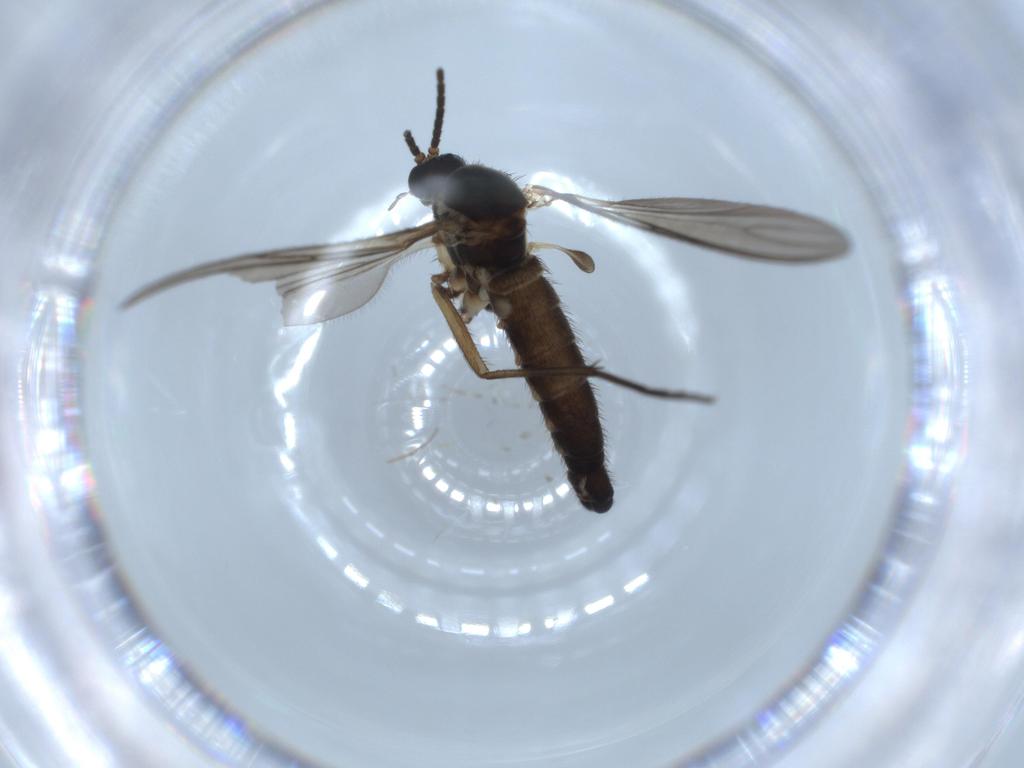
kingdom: Animalia
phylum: Arthropoda
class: Insecta
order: Diptera
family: Sciaridae
